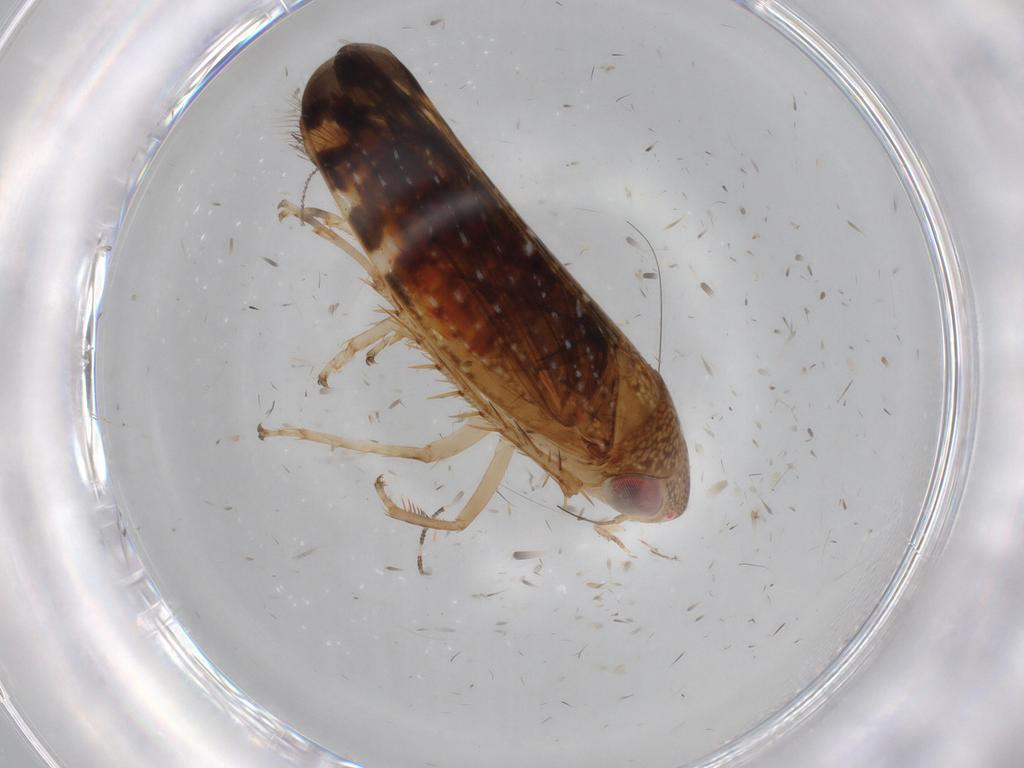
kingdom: Animalia
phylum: Arthropoda
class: Insecta
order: Hemiptera
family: Cicadellidae
